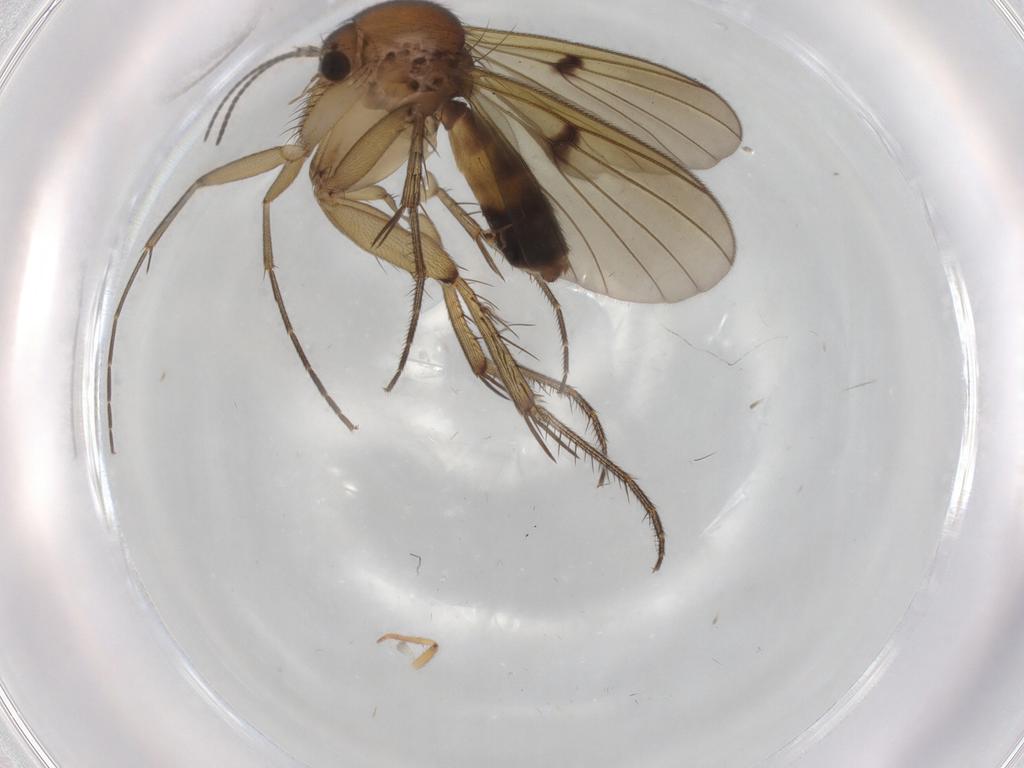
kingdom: Animalia
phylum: Arthropoda
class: Insecta
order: Diptera
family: Mycetophilidae
